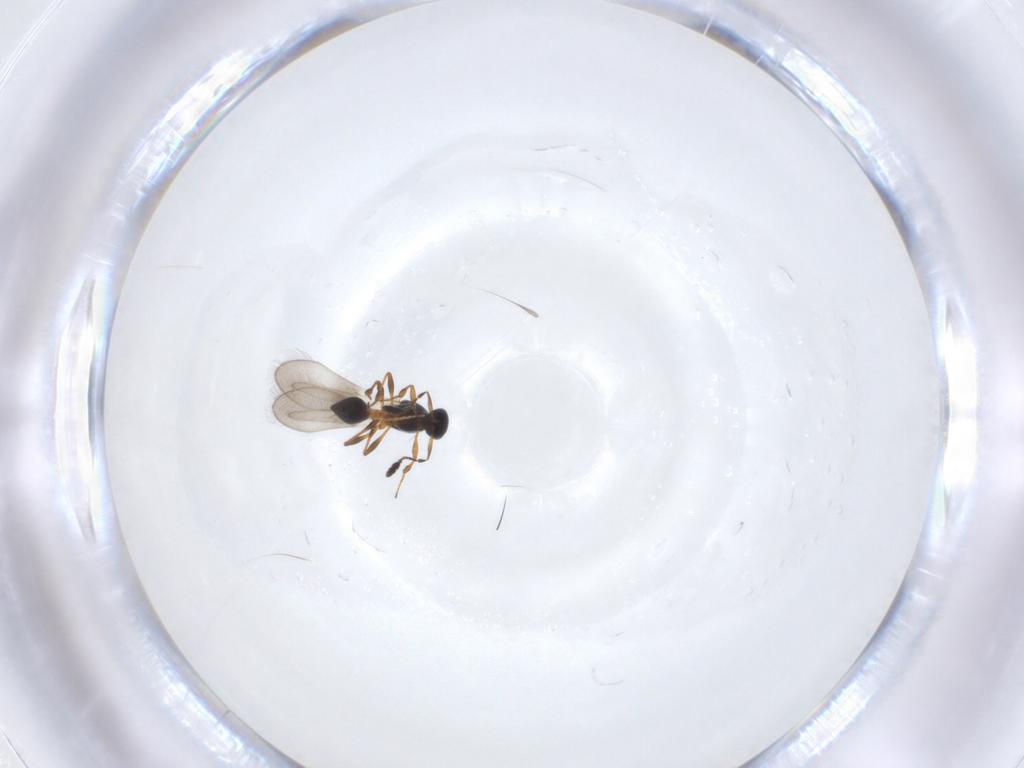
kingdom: Animalia
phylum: Arthropoda
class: Insecta
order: Hymenoptera
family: Platygastridae
